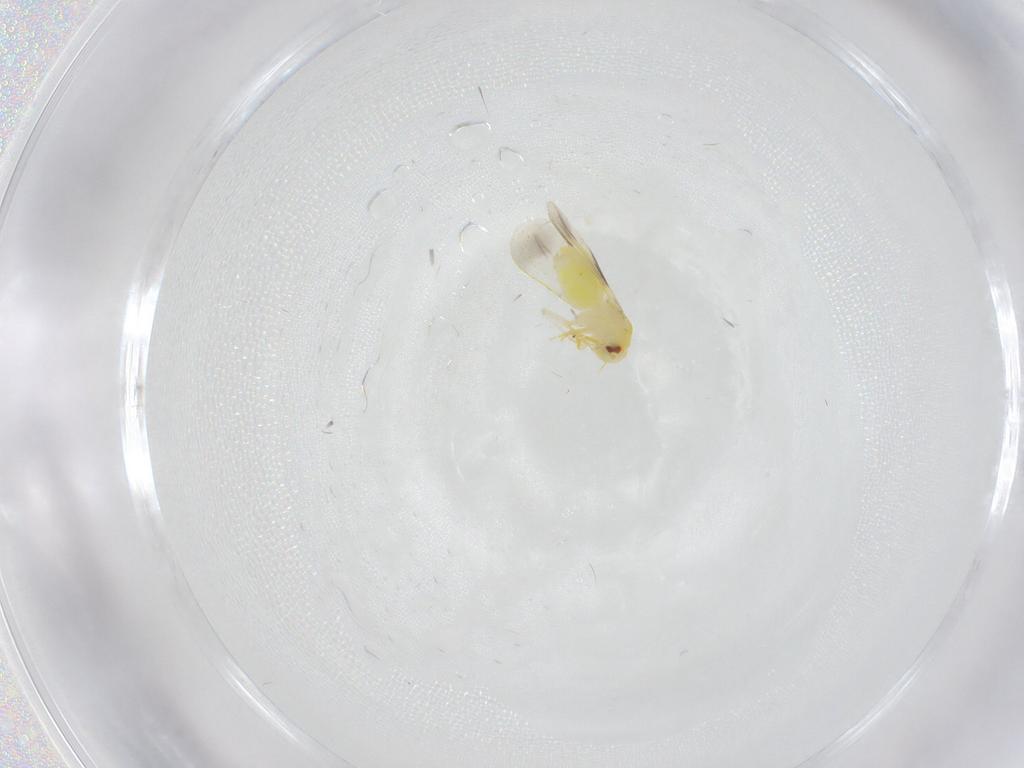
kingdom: Animalia
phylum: Arthropoda
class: Insecta
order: Hemiptera
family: Aleyrodidae
